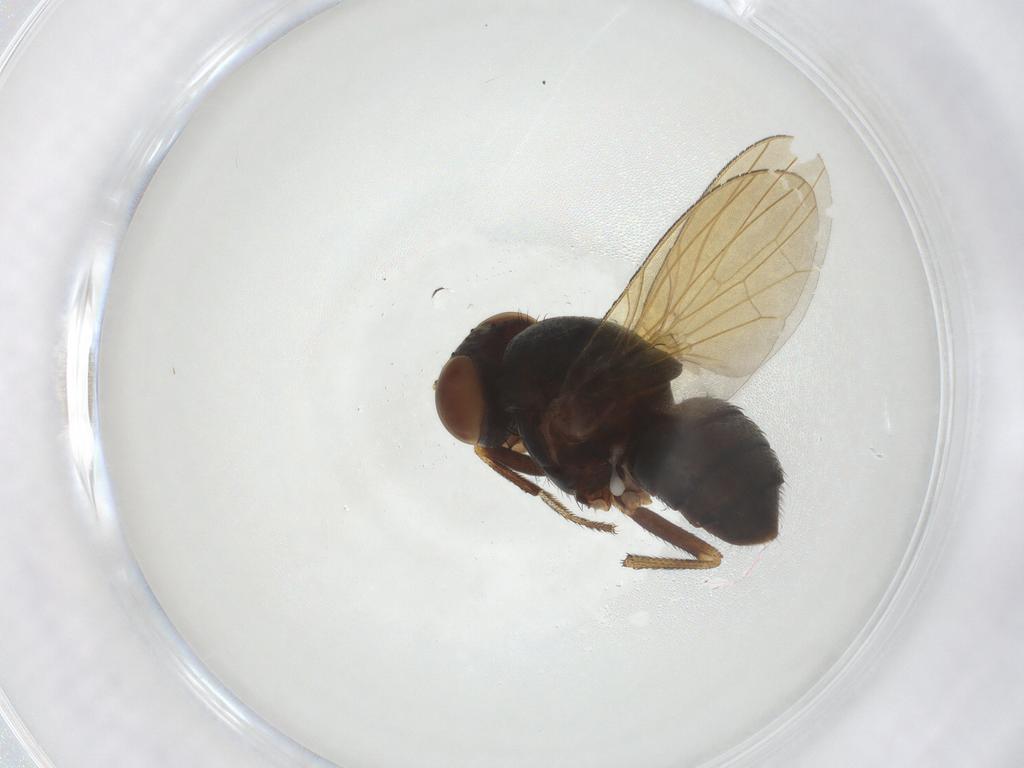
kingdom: Animalia
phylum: Arthropoda
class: Insecta
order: Diptera
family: Lauxaniidae
